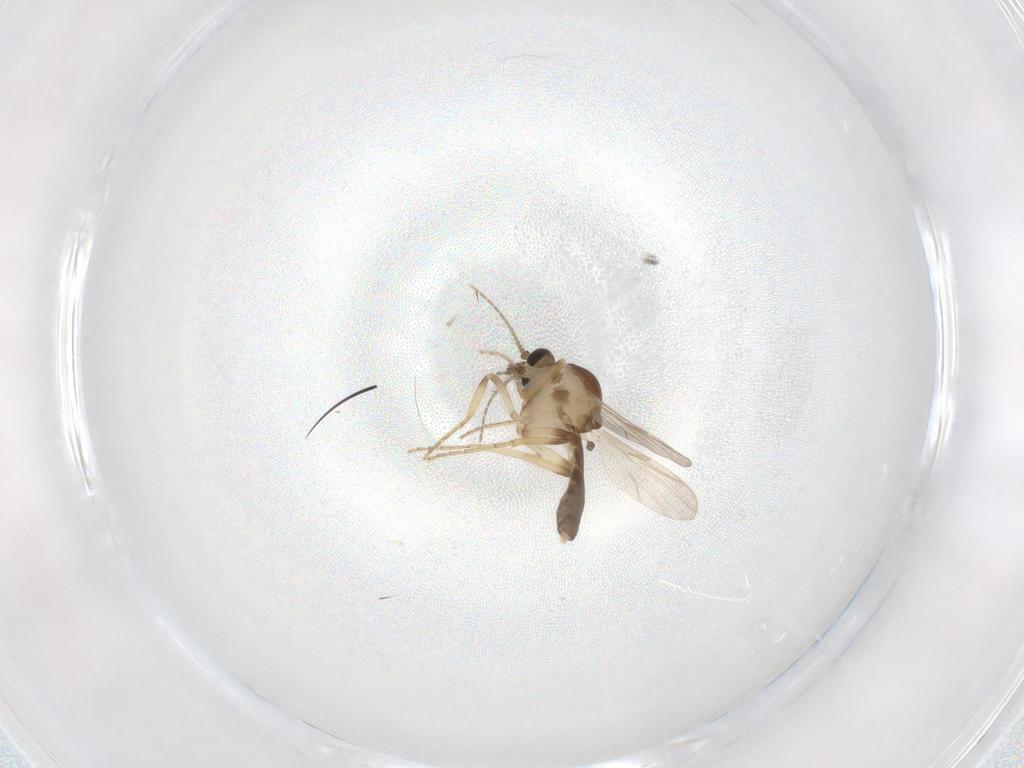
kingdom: Animalia
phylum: Arthropoda
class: Insecta
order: Diptera
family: Ceratopogonidae
